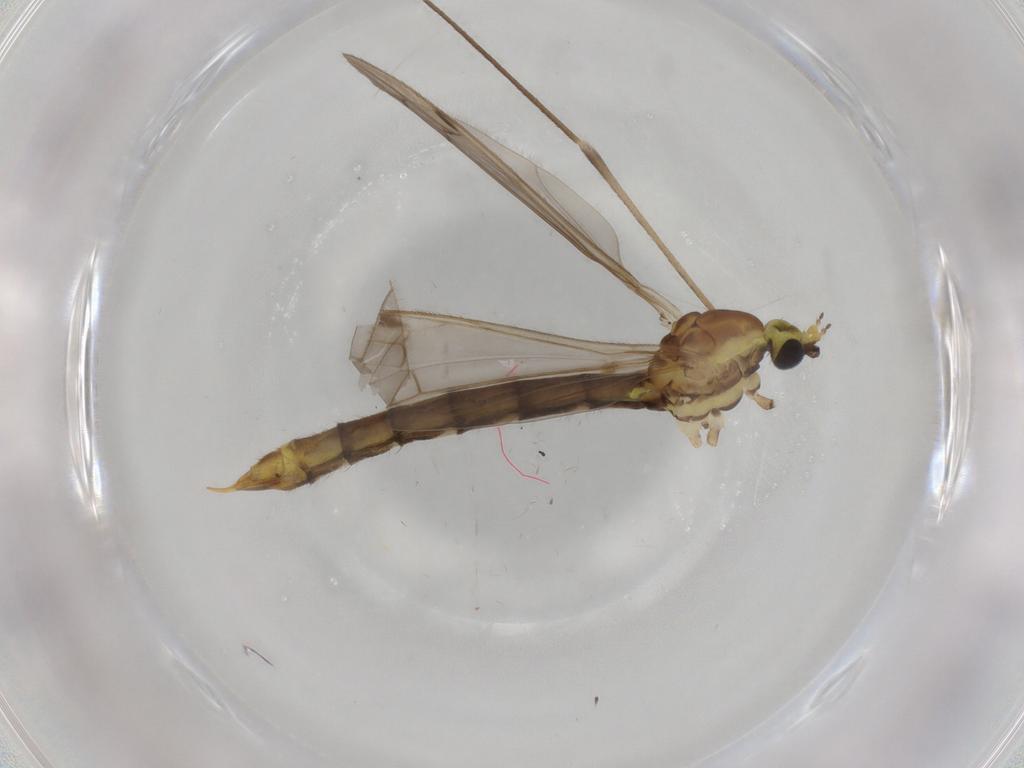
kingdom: Animalia
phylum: Arthropoda
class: Insecta
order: Diptera
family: Limoniidae
